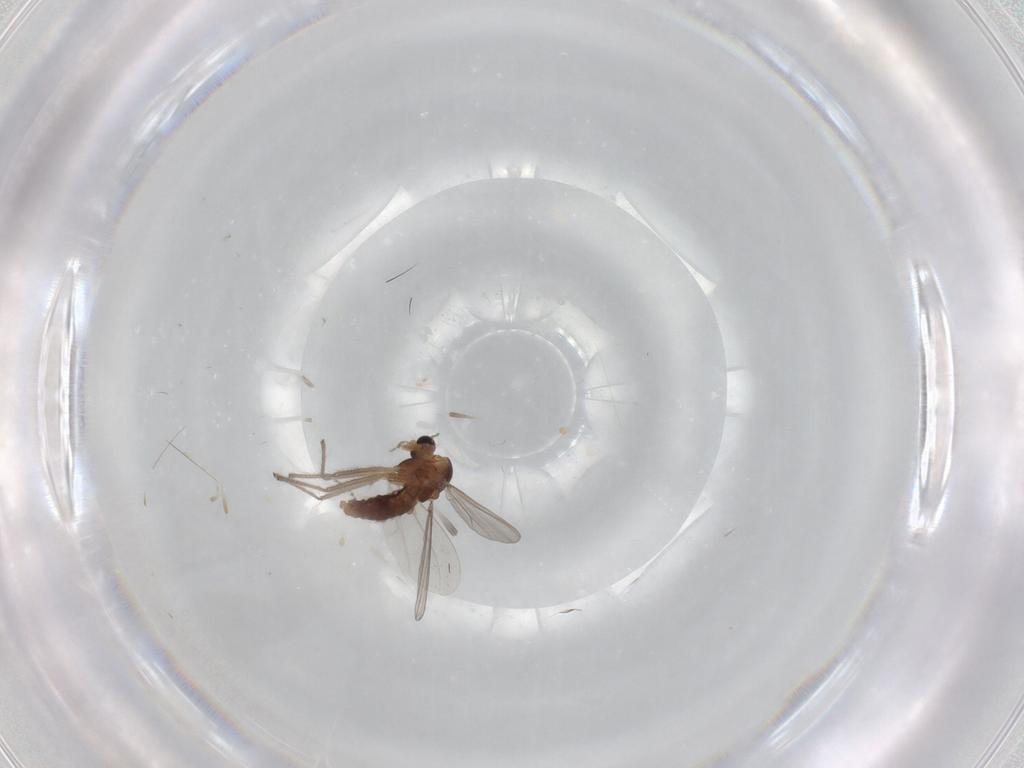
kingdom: Animalia
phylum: Arthropoda
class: Insecta
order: Diptera
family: Chironomidae
